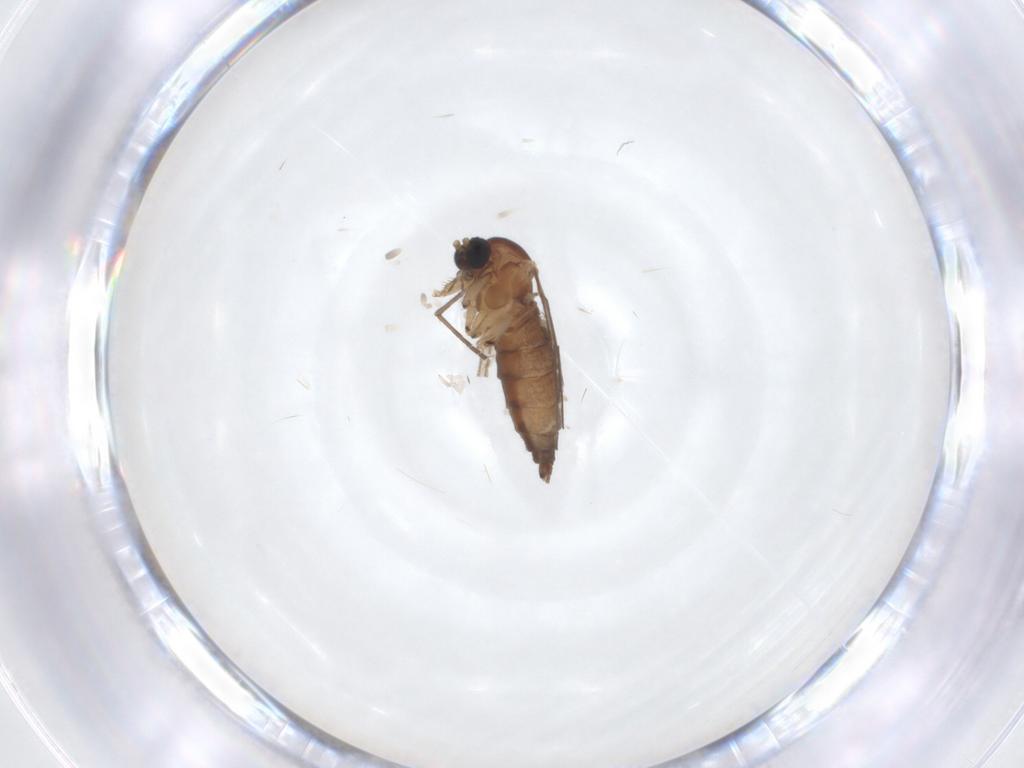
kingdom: Animalia
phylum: Arthropoda
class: Insecta
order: Diptera
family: Sciaridae
